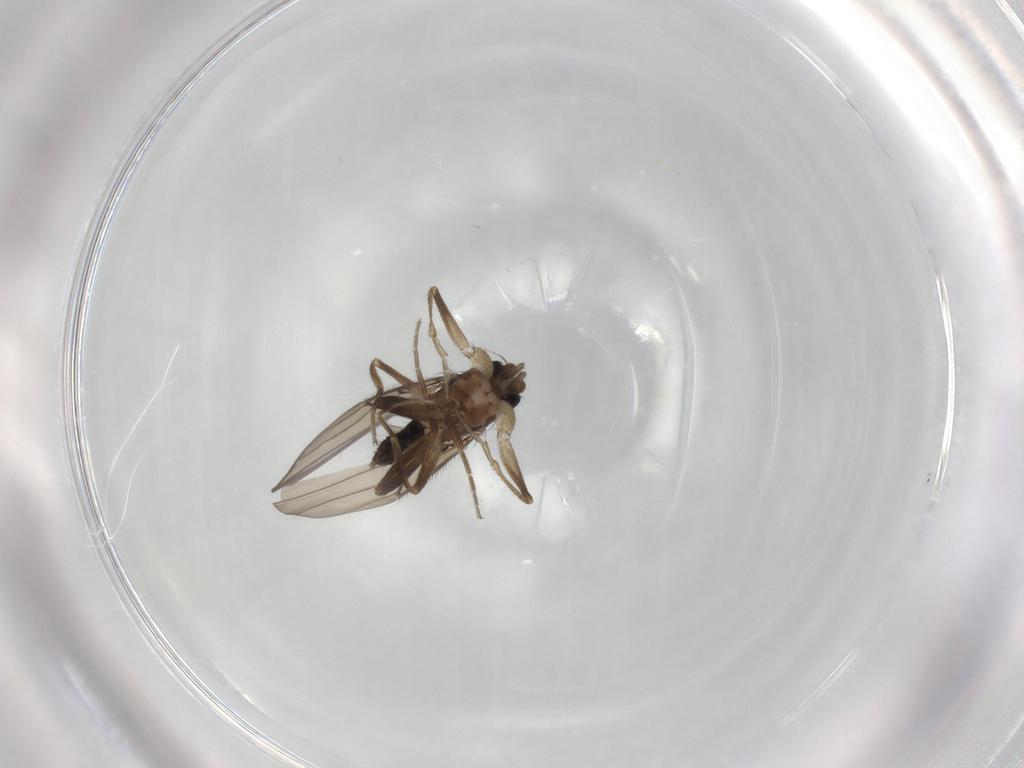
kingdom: Animalia
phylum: Arthropoda
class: Insecta
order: Diptera
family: Phoridae
